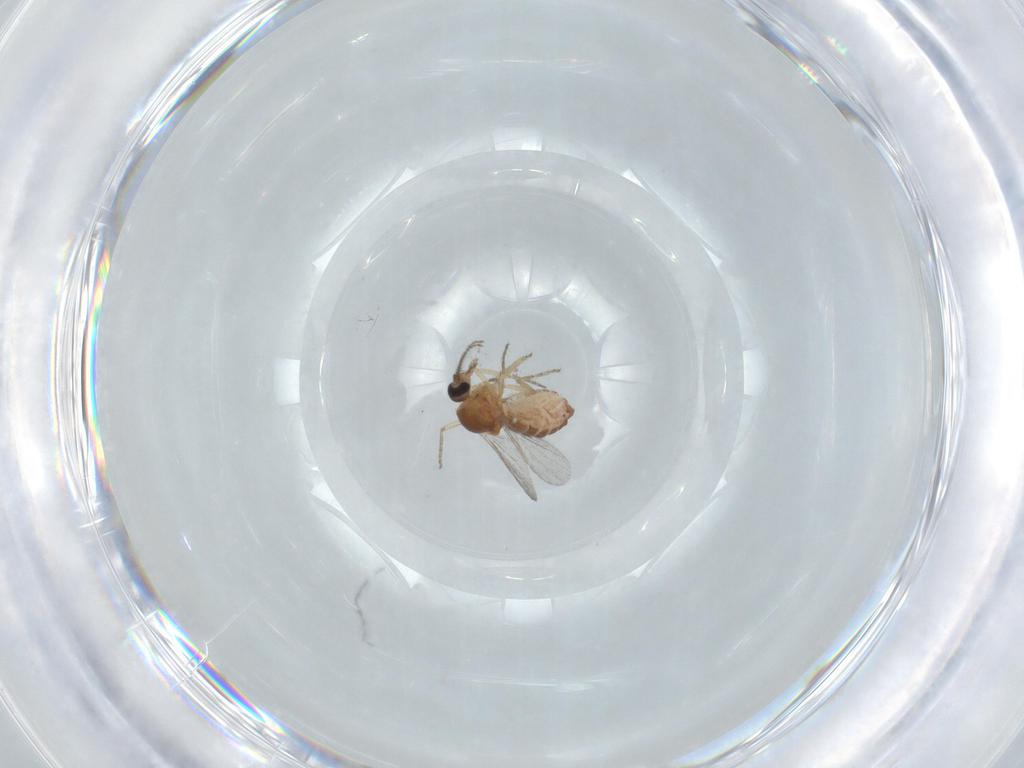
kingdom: Animalia
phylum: Arthropoda
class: Insecta
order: Diptera
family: Ceratopogonidae
